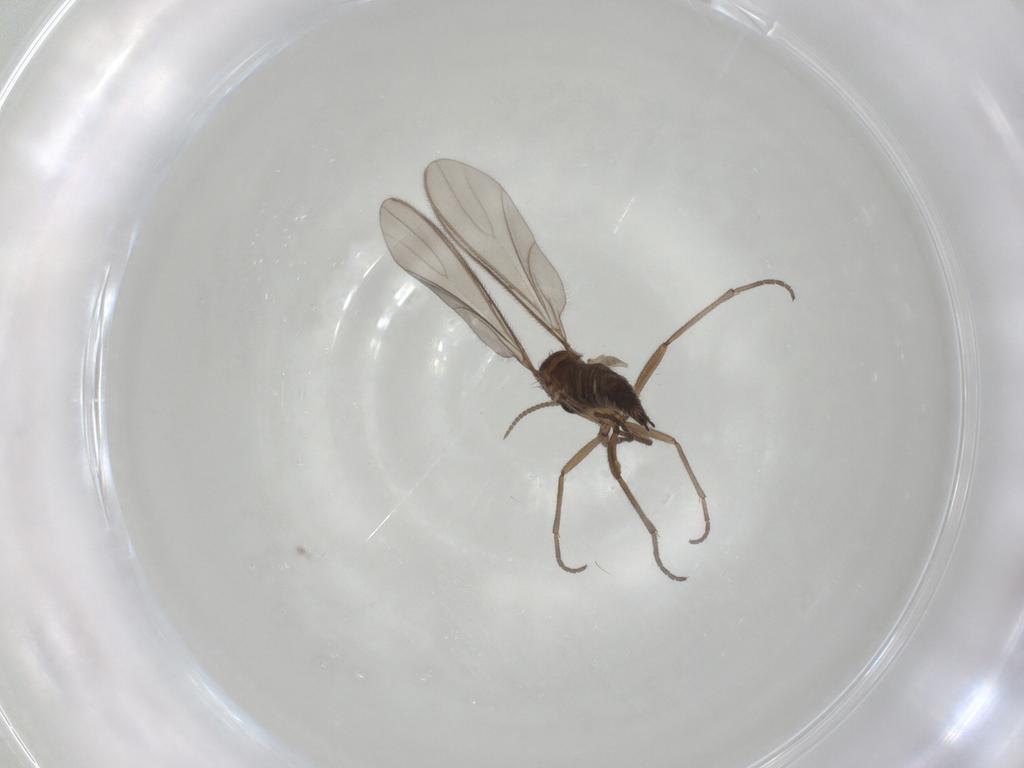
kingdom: Animalia
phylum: Arthropoda
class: Insecta
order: Diptera
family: Sciaridae
